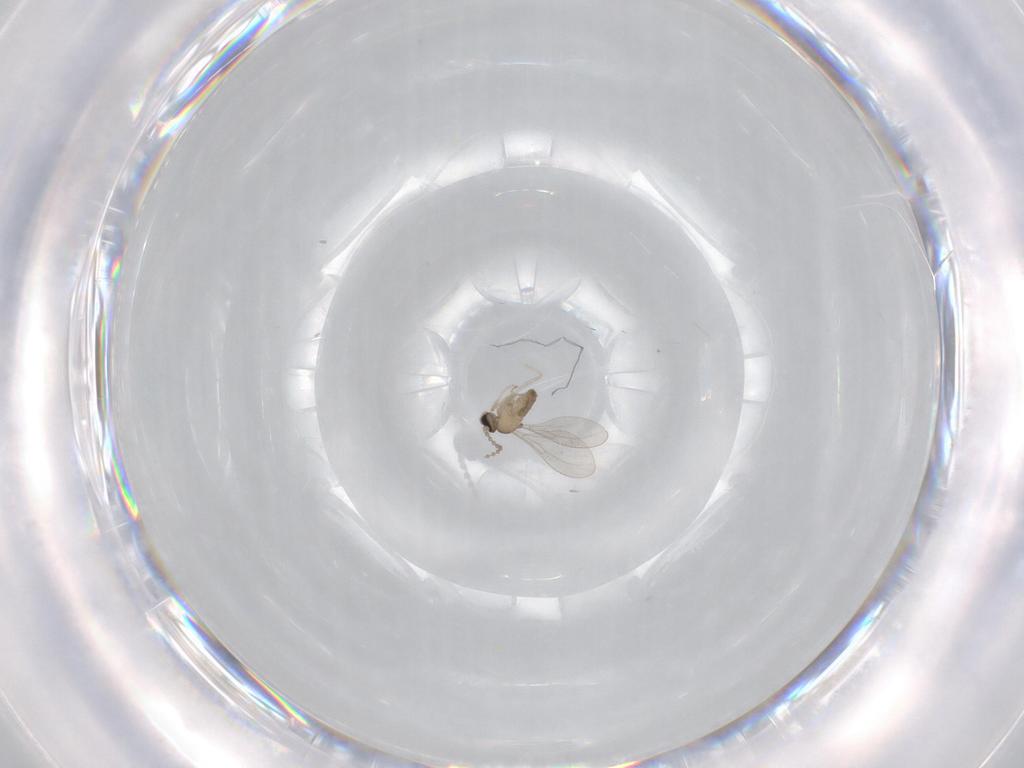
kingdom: Animalia
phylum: Arthropoda
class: Insecta
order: Diptera
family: Cecidomyiidae
